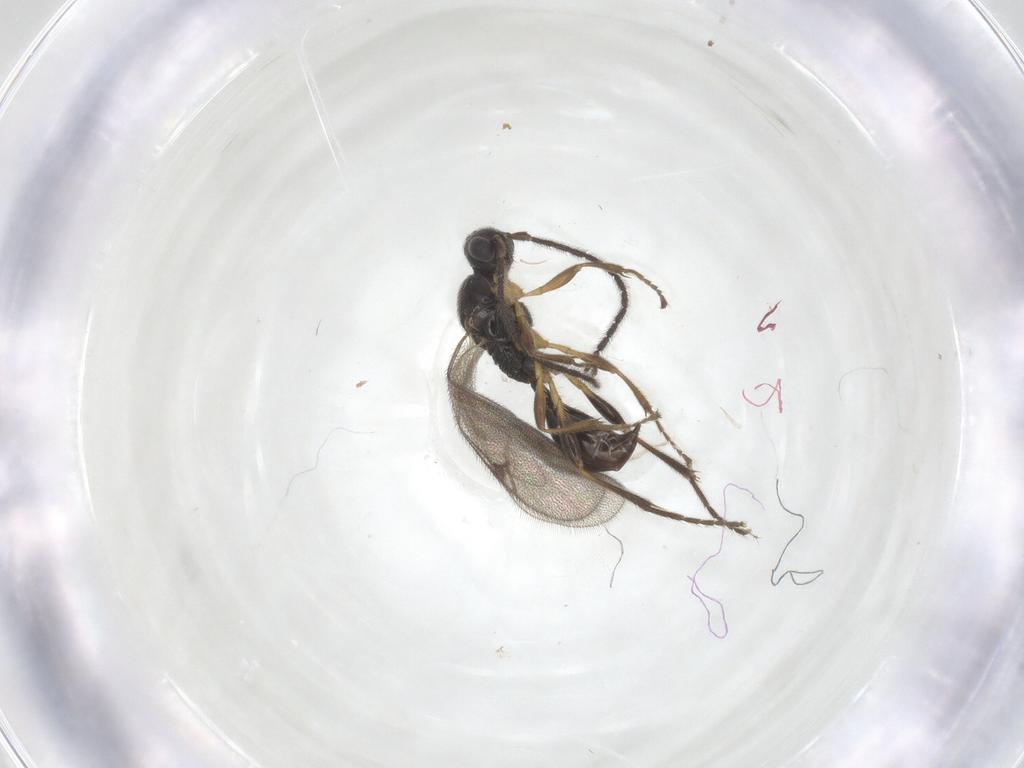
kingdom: Animalia
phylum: Arthropoda
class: Insecta
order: Hymenoptera
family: Proctotrupidae
